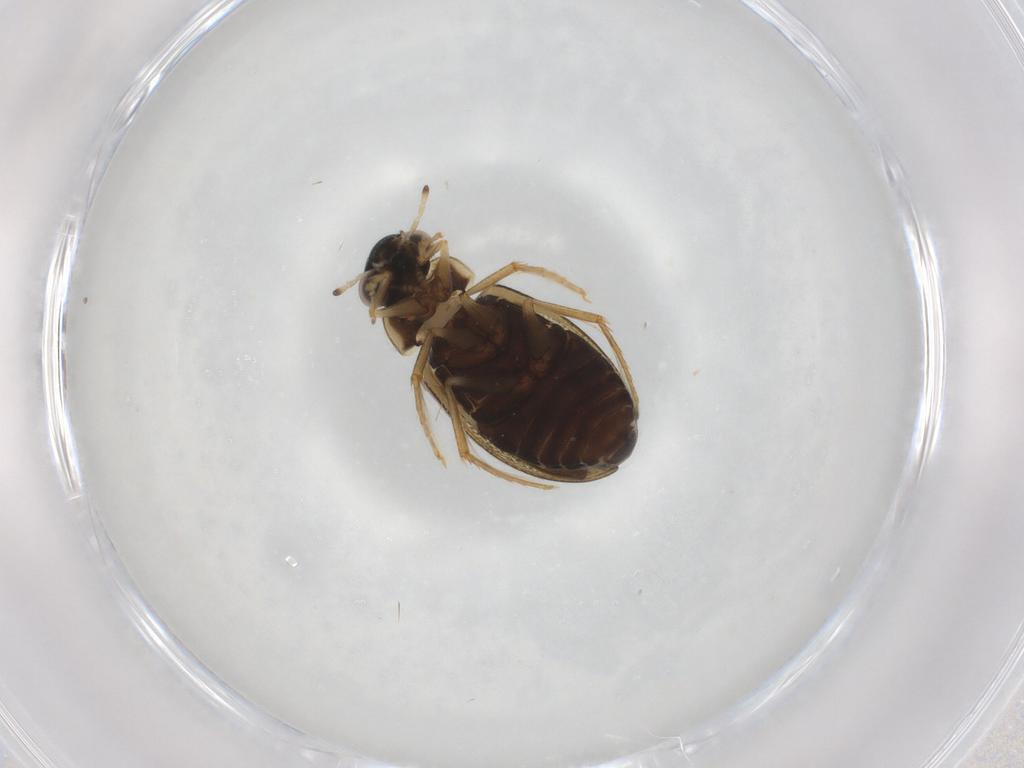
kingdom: Animalia
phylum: Arthropoda
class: Insecta
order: Coleoptera
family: Hydrophilidae
